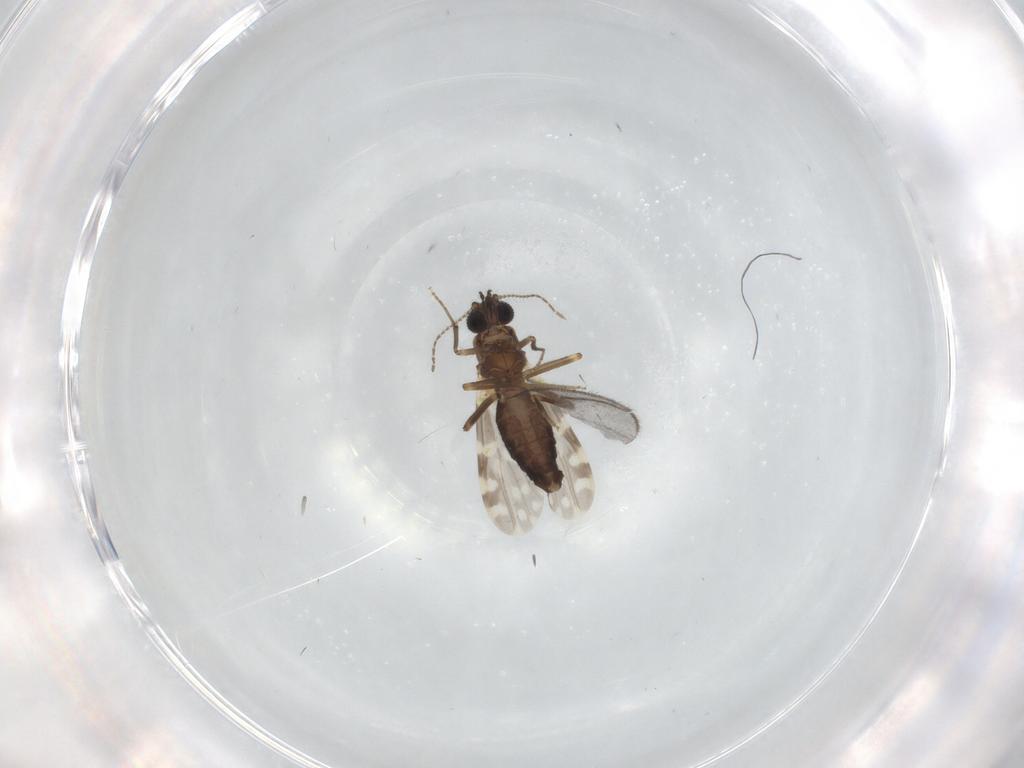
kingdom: Animalia
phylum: Arthropoda
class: Insecta
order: Diptera
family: Ceratopogonidae
